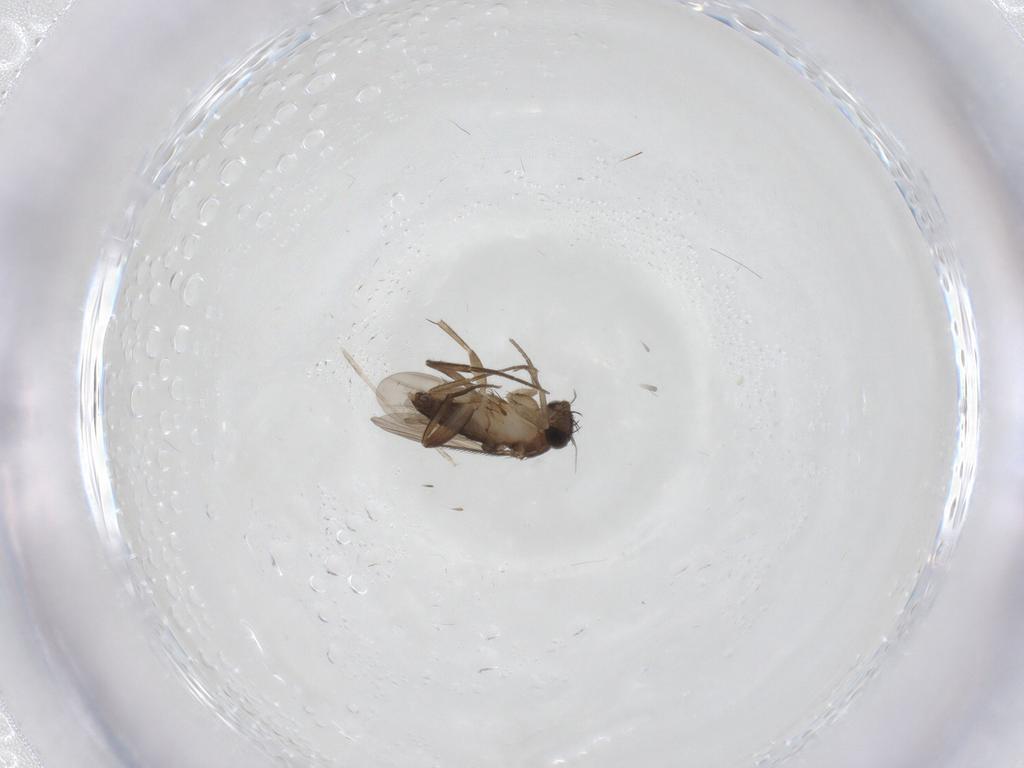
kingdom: Animalia
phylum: Arthropoda
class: Insecta
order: Diptera
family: Phoridae
